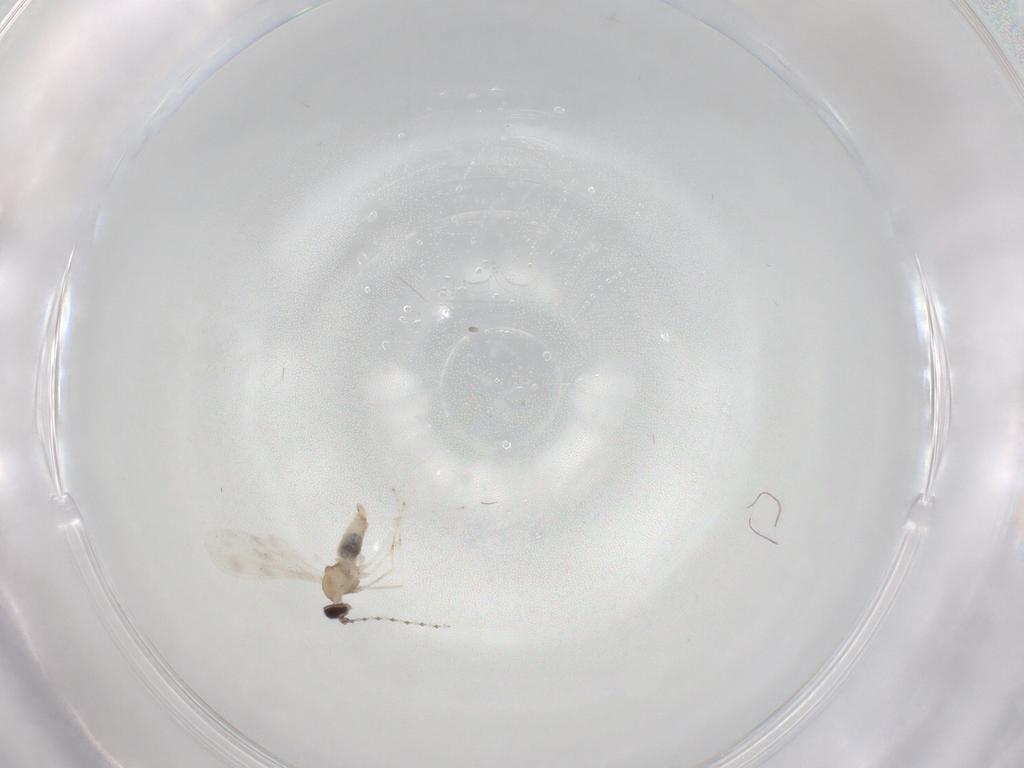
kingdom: Animalia
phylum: Arthropoda
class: Insecta
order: Diptera
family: Cecidomyiidae
